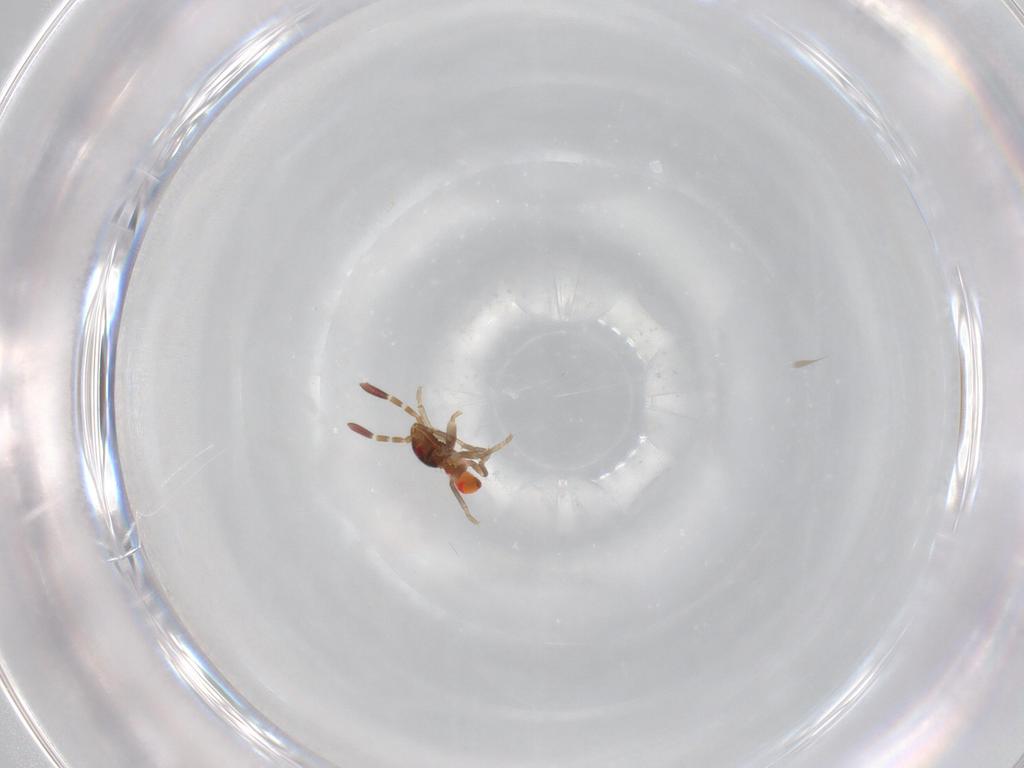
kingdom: Animalia
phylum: Arthropoda
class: Insecta
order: Hemiptera
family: Rhyparochromidae
